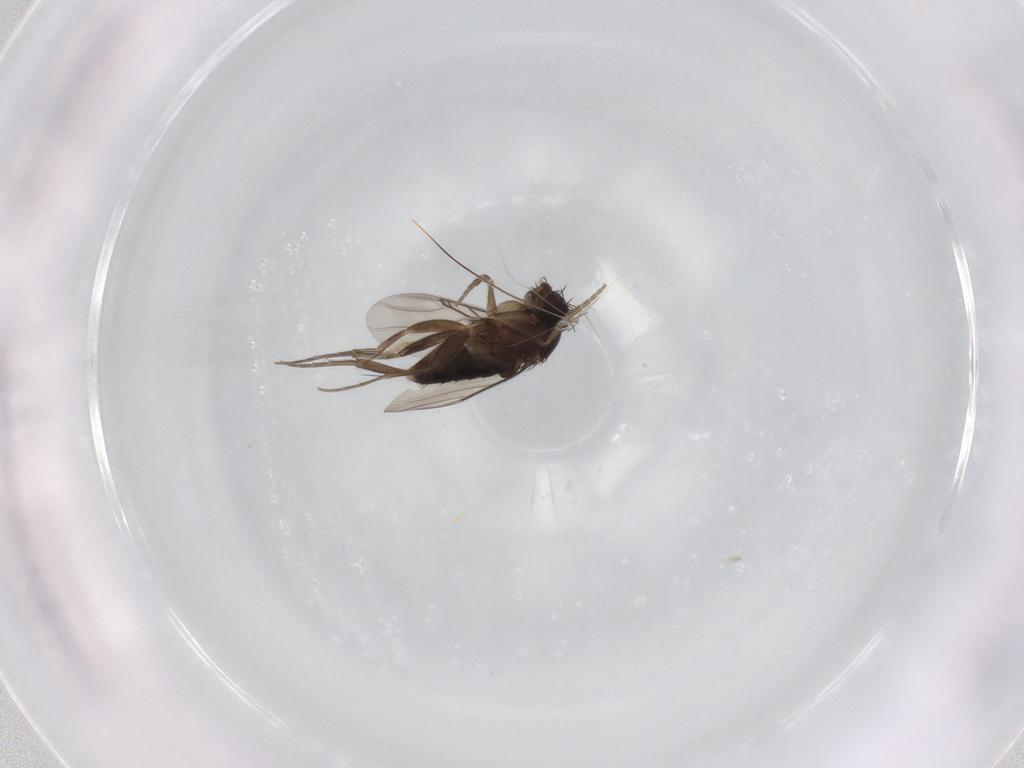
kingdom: Animalia
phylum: Arthropoda
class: Insecta
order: Diptera
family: Phoridae
